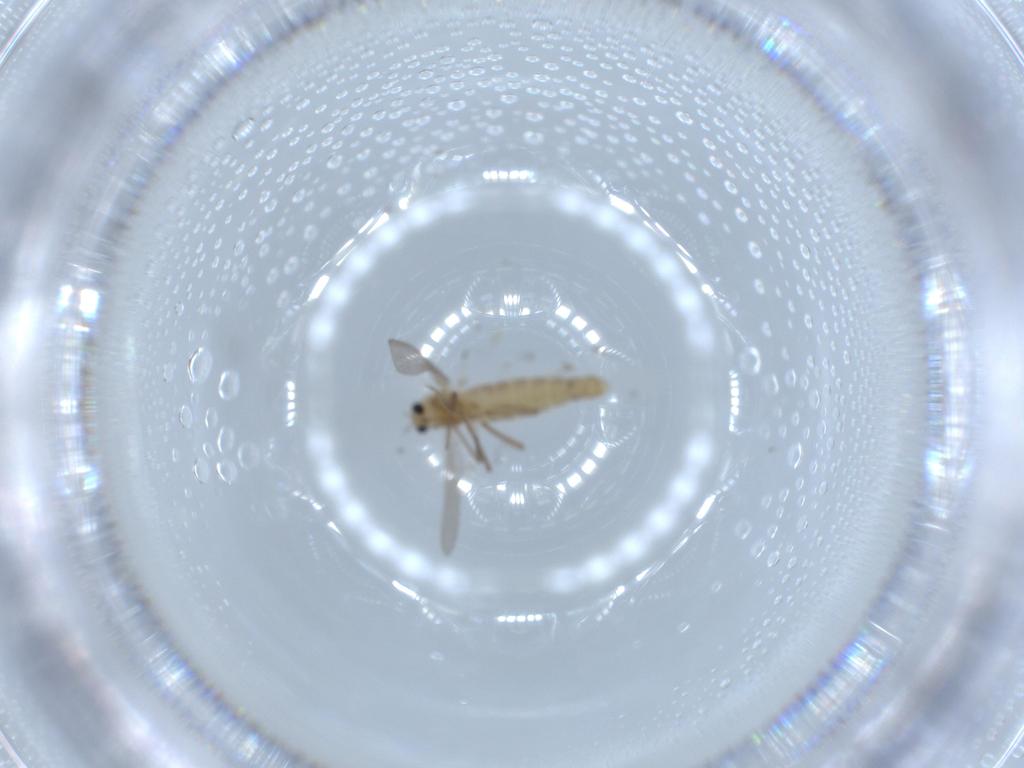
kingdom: Animalia
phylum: Arthropoda
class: Insecta
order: Diptera
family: Chironomidae
